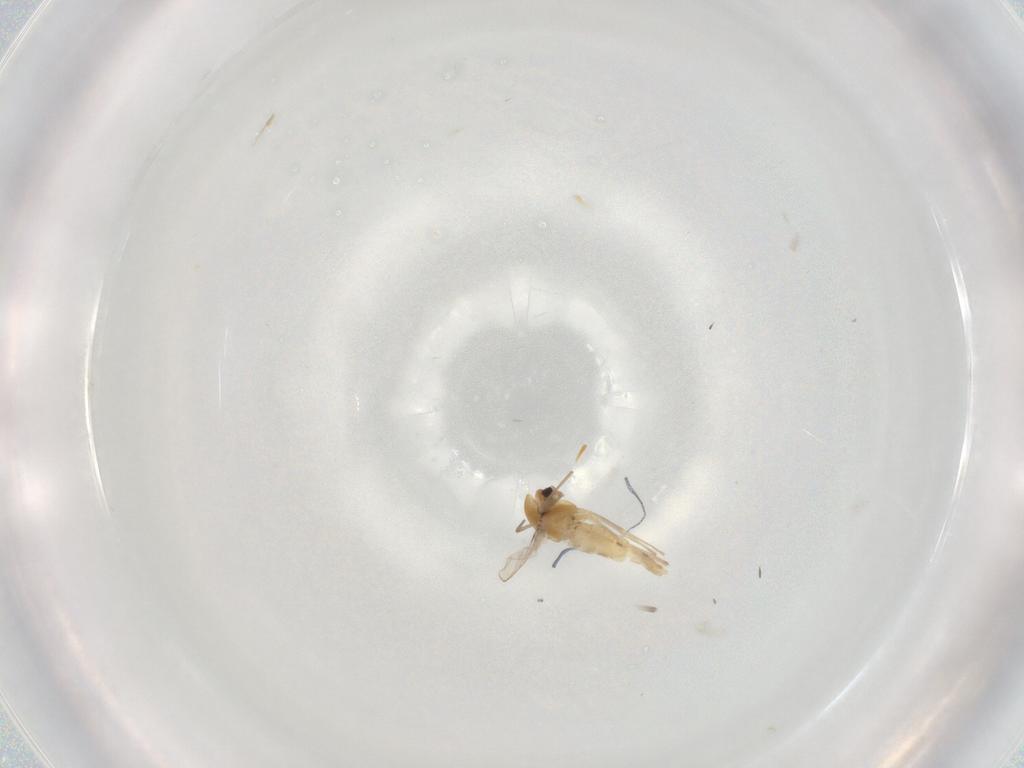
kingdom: Animalia
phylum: Arthropoda
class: Insecta
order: Diptera
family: Chironomidae
